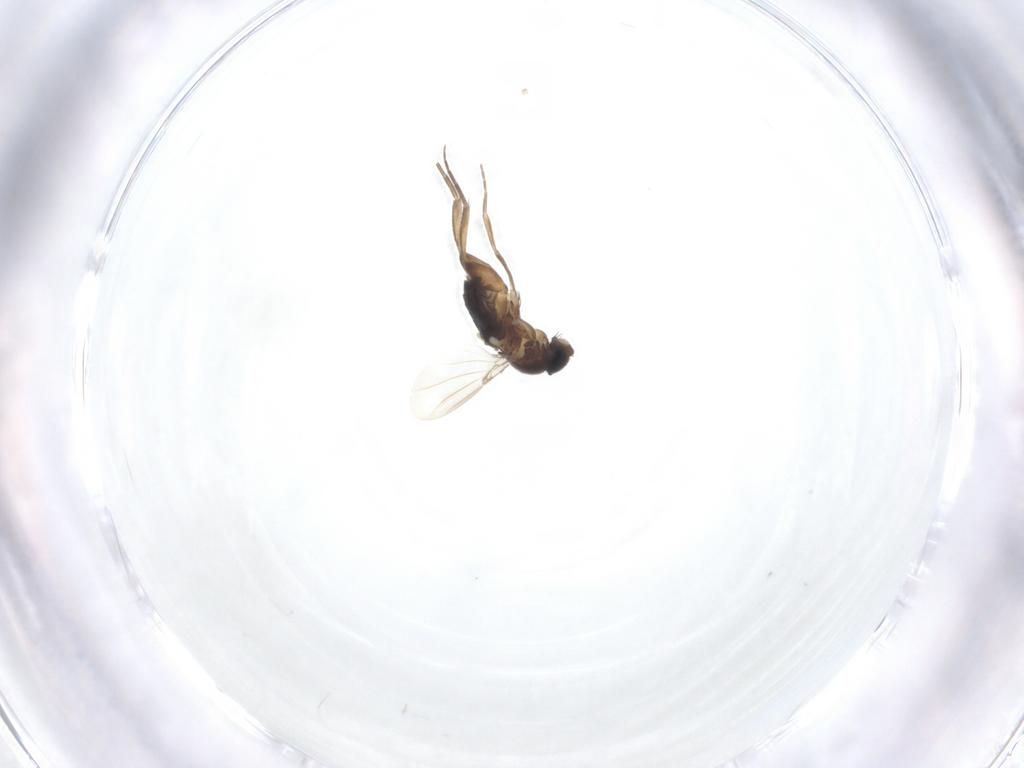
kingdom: Animalia
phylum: Arthropoda
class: Insecta
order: Diptera
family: Phoridae
